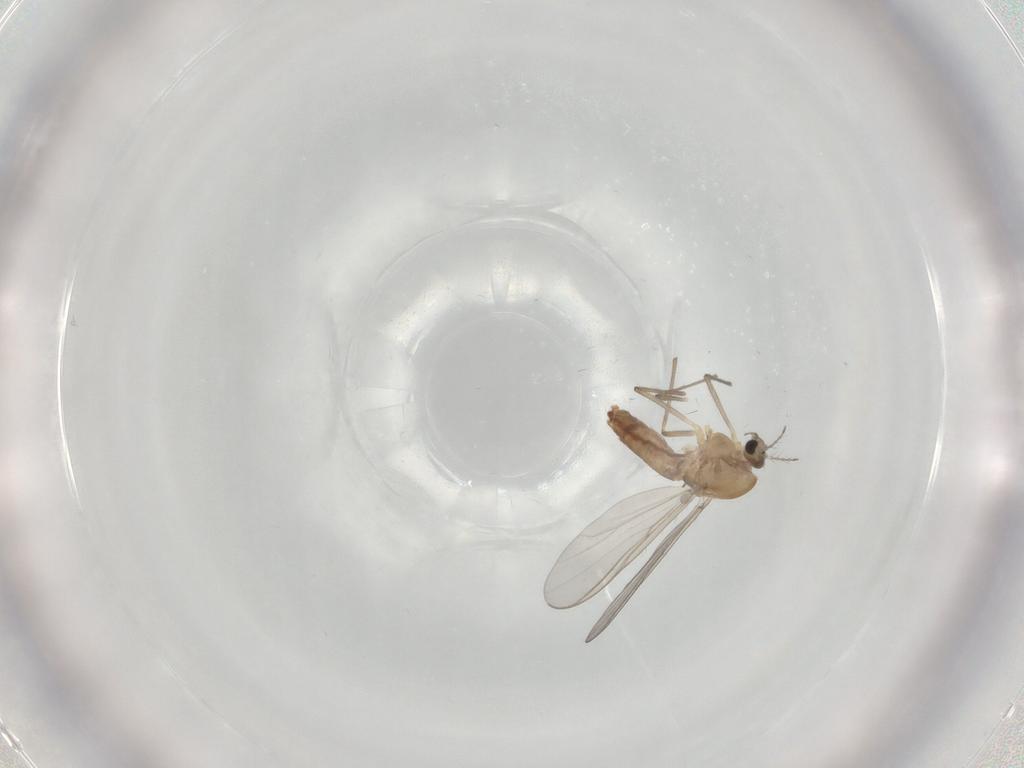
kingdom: Animalia
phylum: Arthropoda
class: Insecta
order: Diptera
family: Chironomidae
